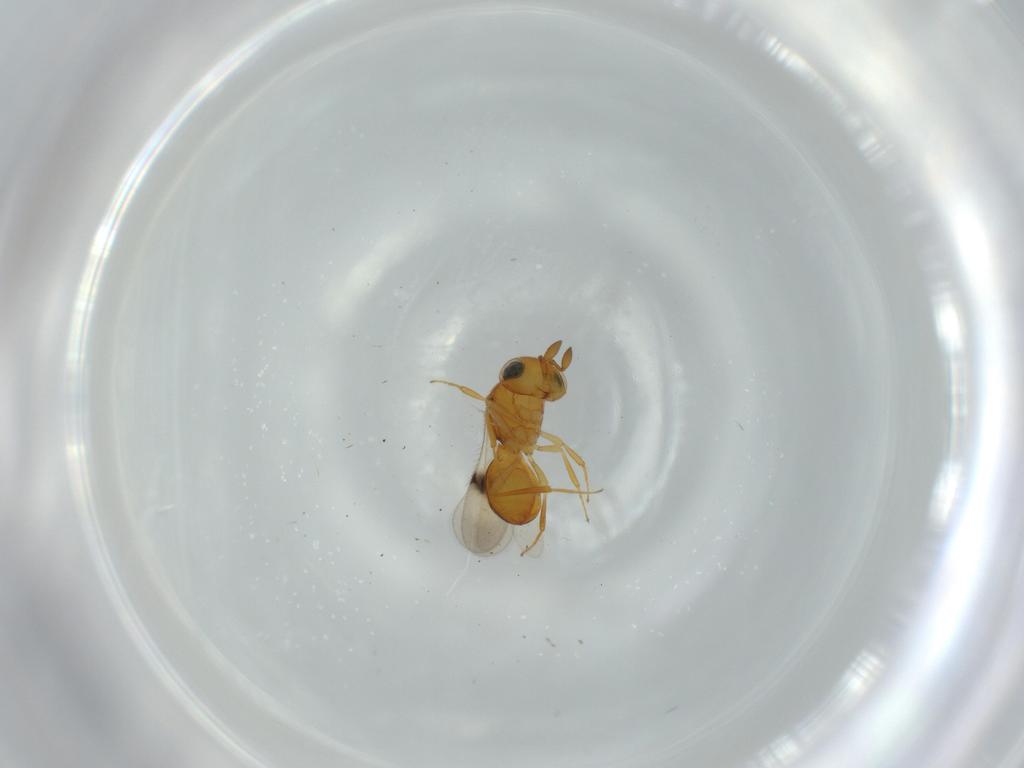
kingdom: Animalia
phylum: Arthropoda
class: Insecta
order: Hymenoptera
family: Scelionidae
